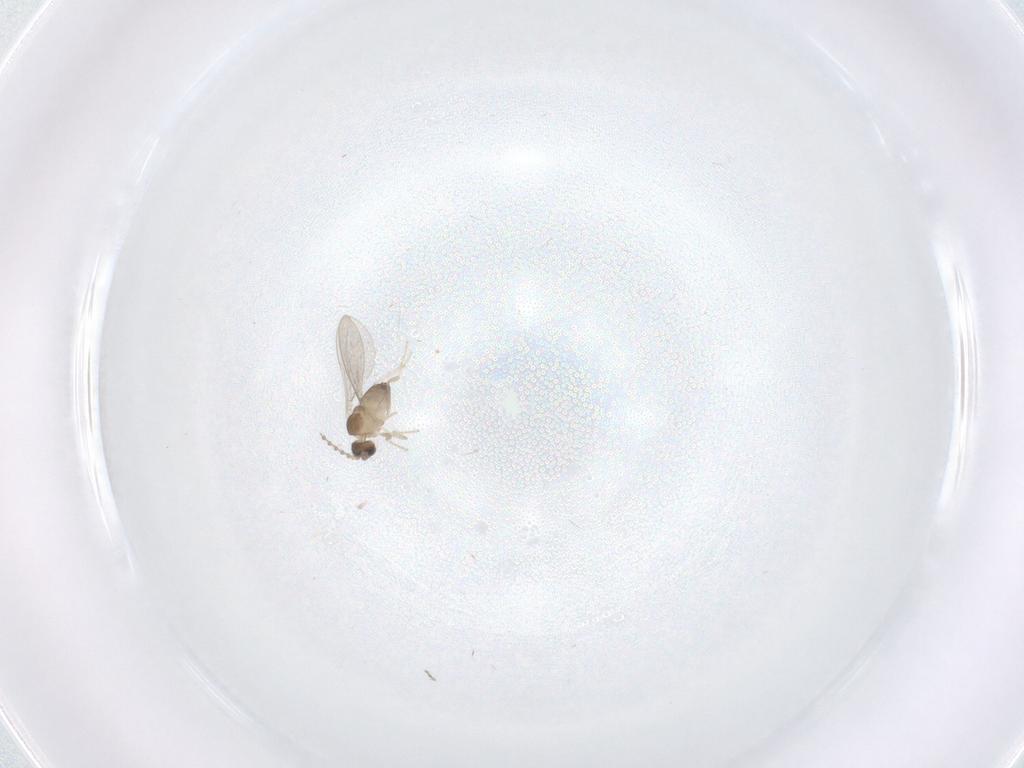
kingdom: Animalia
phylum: Arthropoda
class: Insecta
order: Diptera
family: Cecidomyiidae
